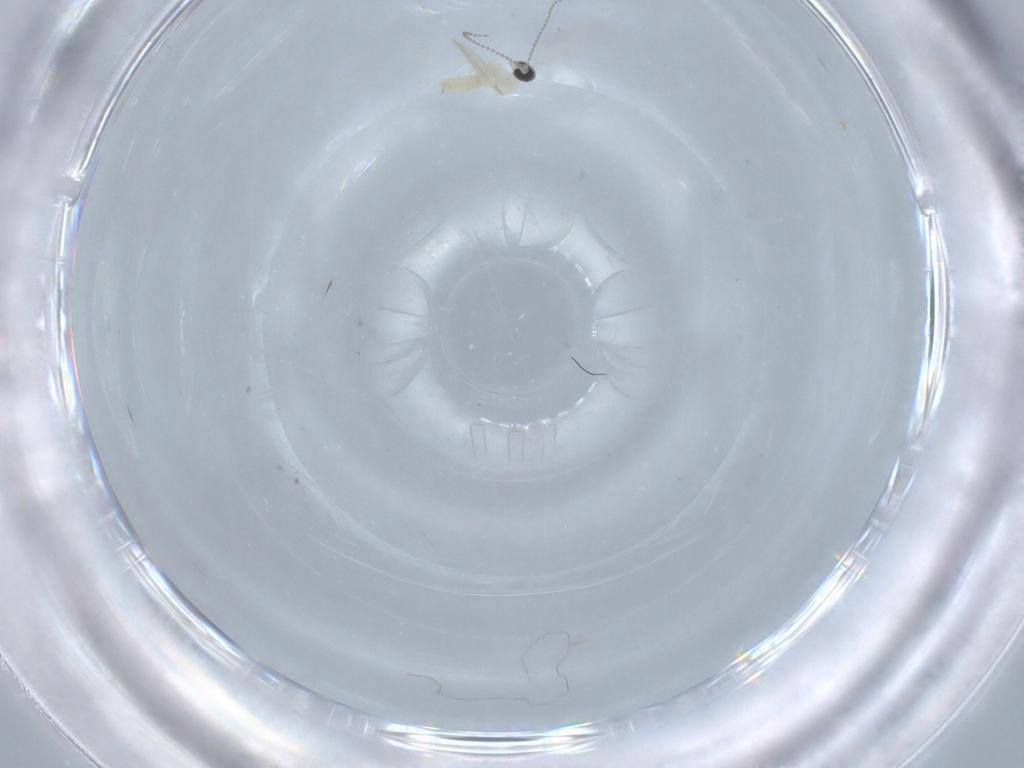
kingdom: Animalia
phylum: Arthropoda
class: Insecta
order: Diptera
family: Cecidomyiidae
